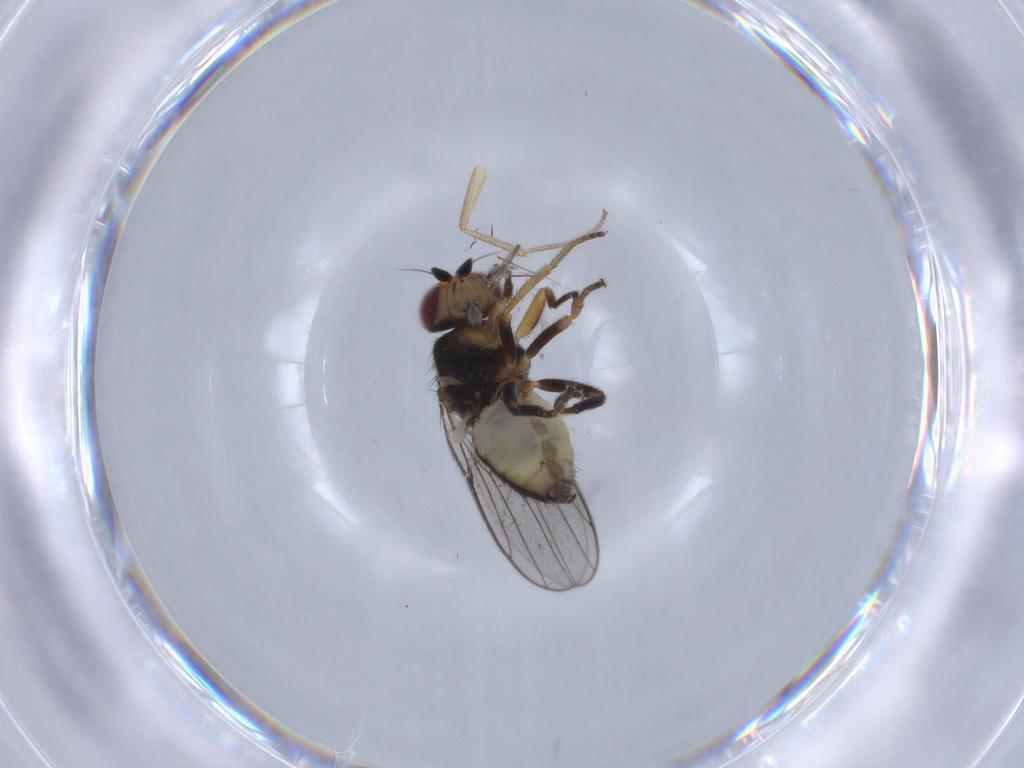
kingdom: Animalia
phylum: Arthropoda
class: Insecta
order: Diptera
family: Chloropidae
